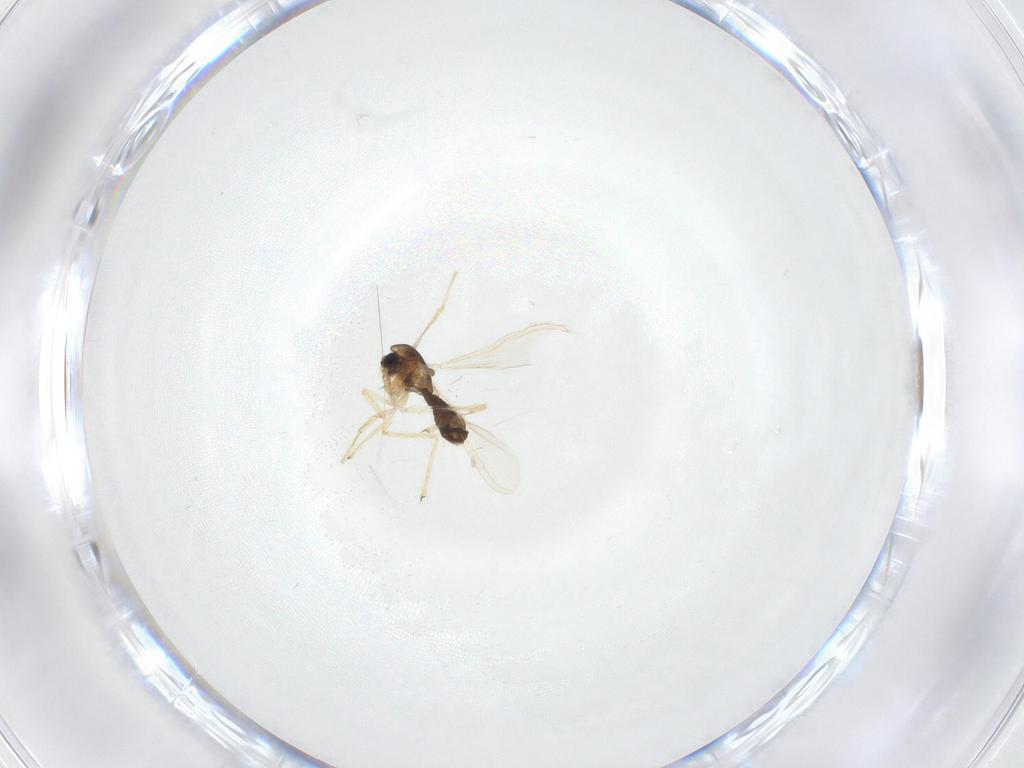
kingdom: Animalia
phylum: Arthropoda
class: Insecta
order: Diptera
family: Chironomidae
